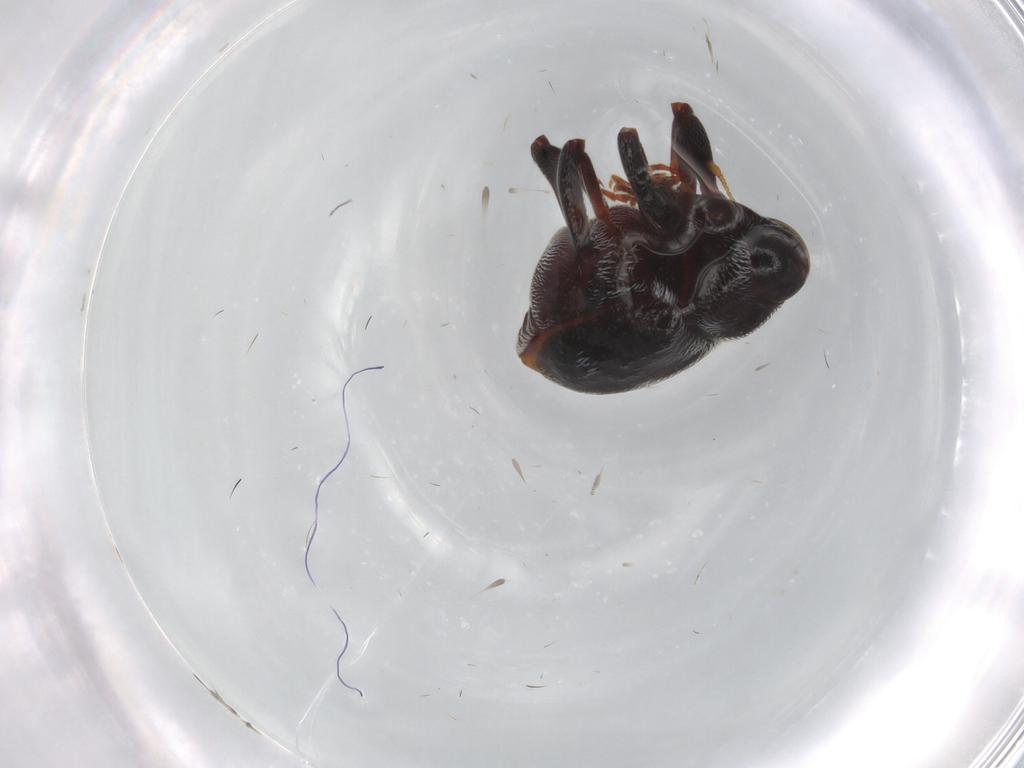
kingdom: Animalia
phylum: Arthropoda
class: Insecta
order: Coleoptera
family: Curculionidae
